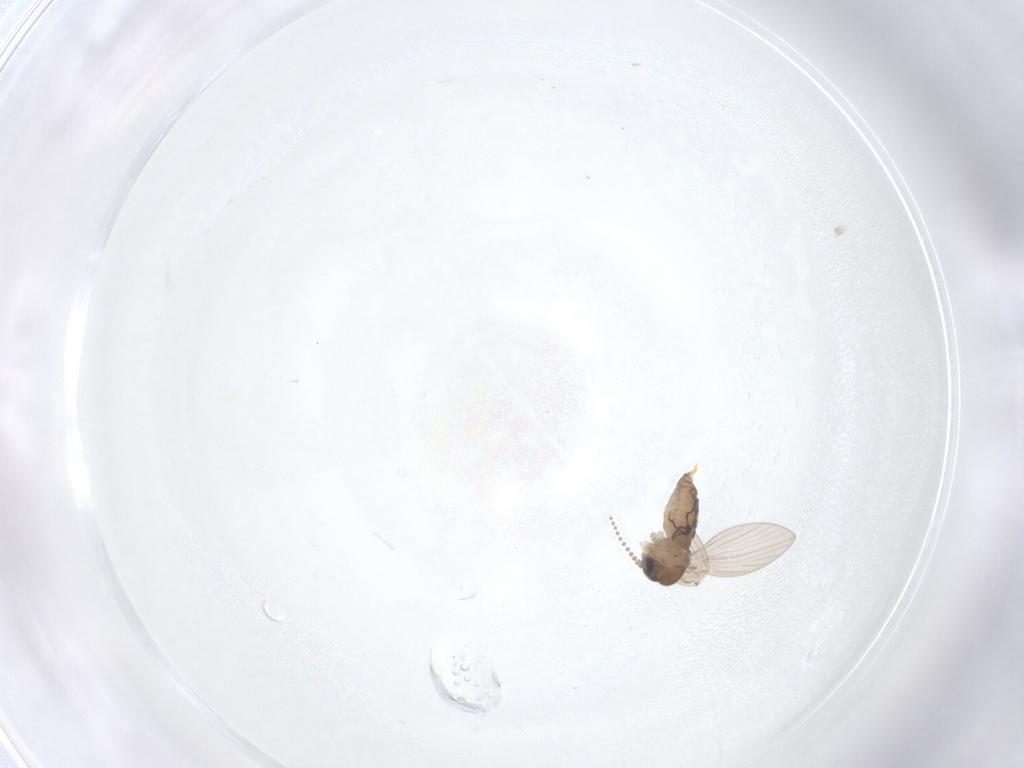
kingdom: Animalia
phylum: Arthropoda
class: Insecta
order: Diptera
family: Psychodidae
